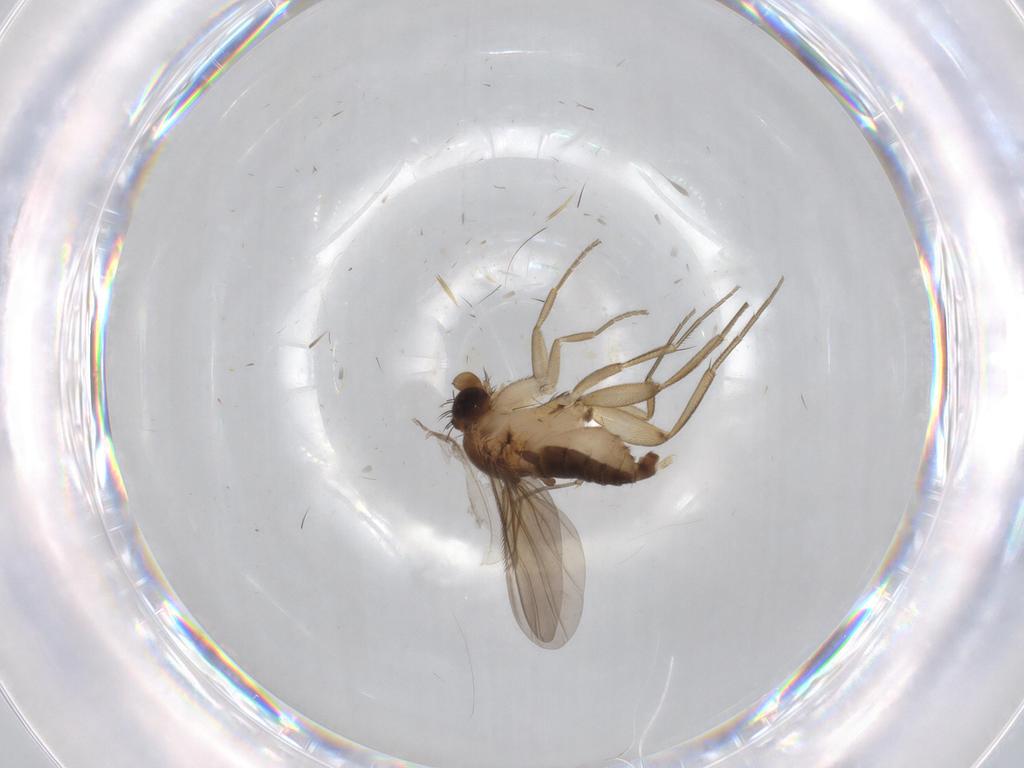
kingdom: Animalia
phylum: Arthropoda
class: Insecta
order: Diptera
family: Phoridae
